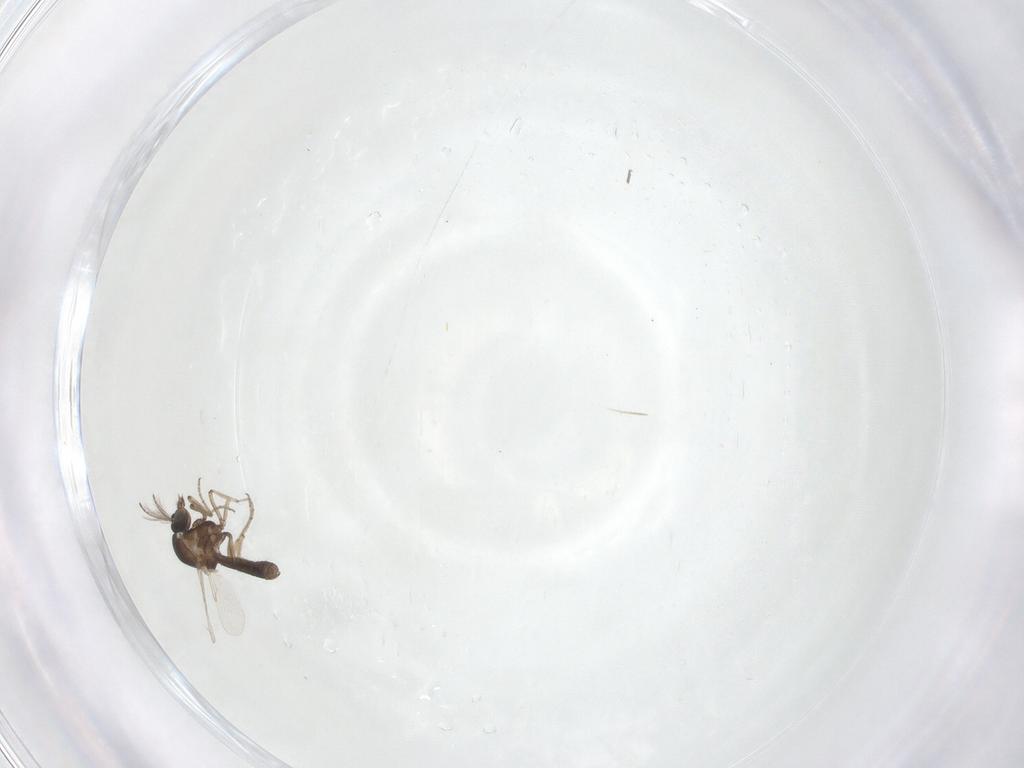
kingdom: Animalia
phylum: Arthropoda
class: Insecta
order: Diptera
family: Ceratopogonidae
